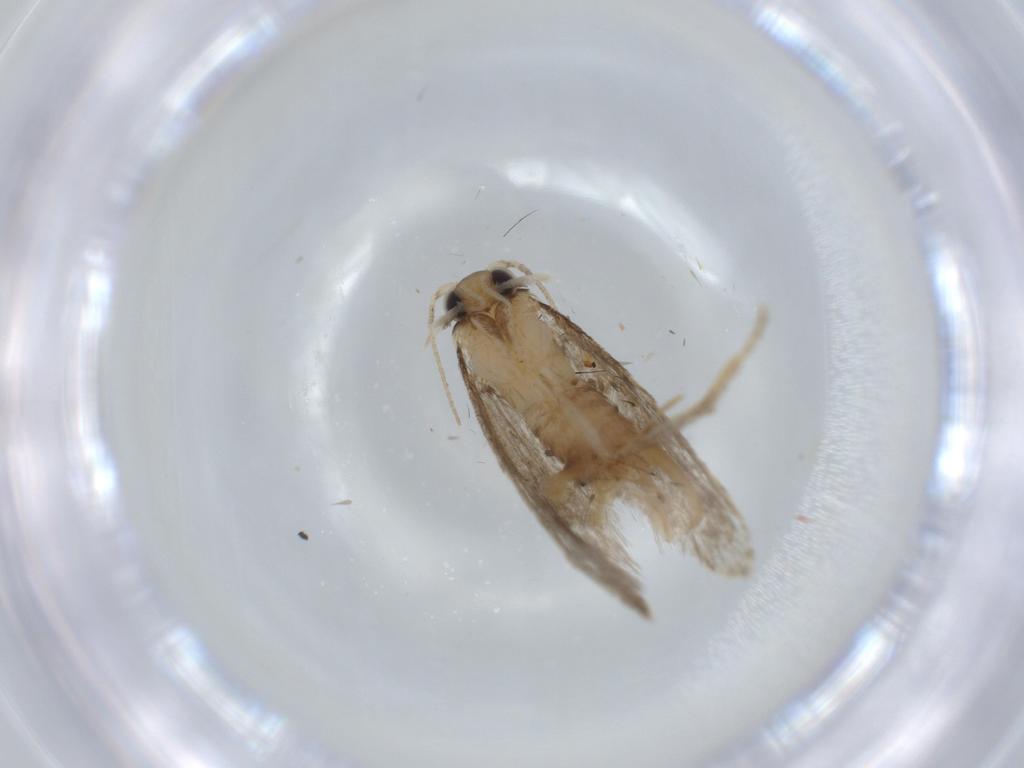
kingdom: Animalia
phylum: Arthropoda
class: Insecta
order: Lepidoptera
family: Tineidae
